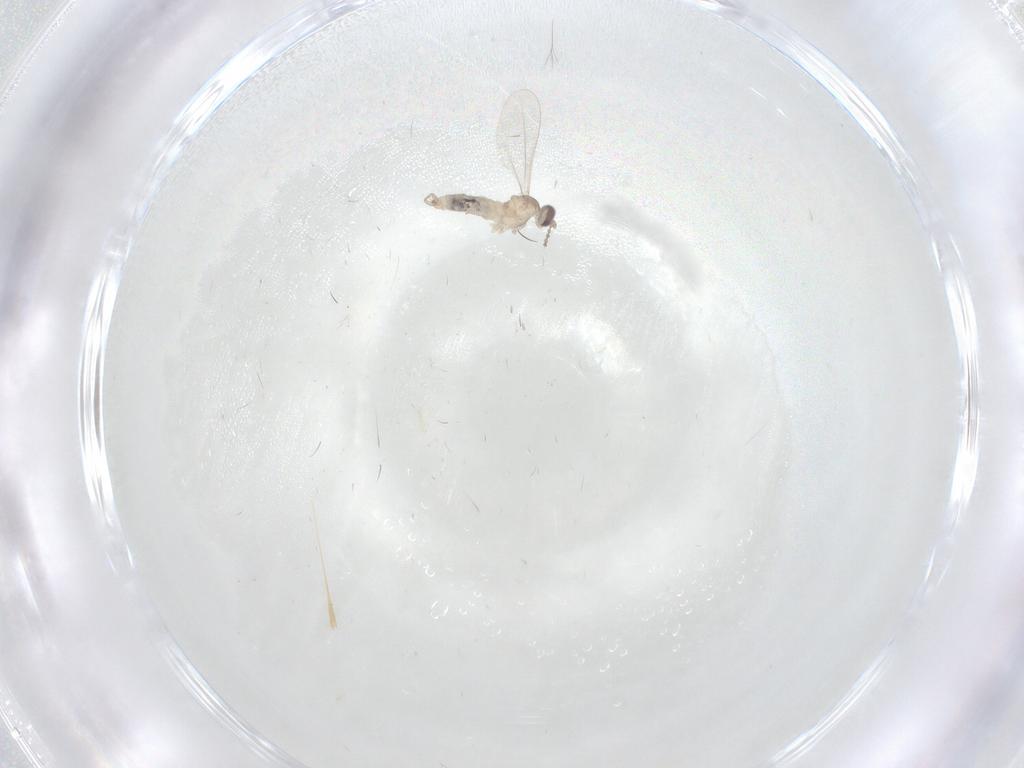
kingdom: Animalia
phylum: Arthropoda
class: Insecta
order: Diptera
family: Cecidomyiidae
